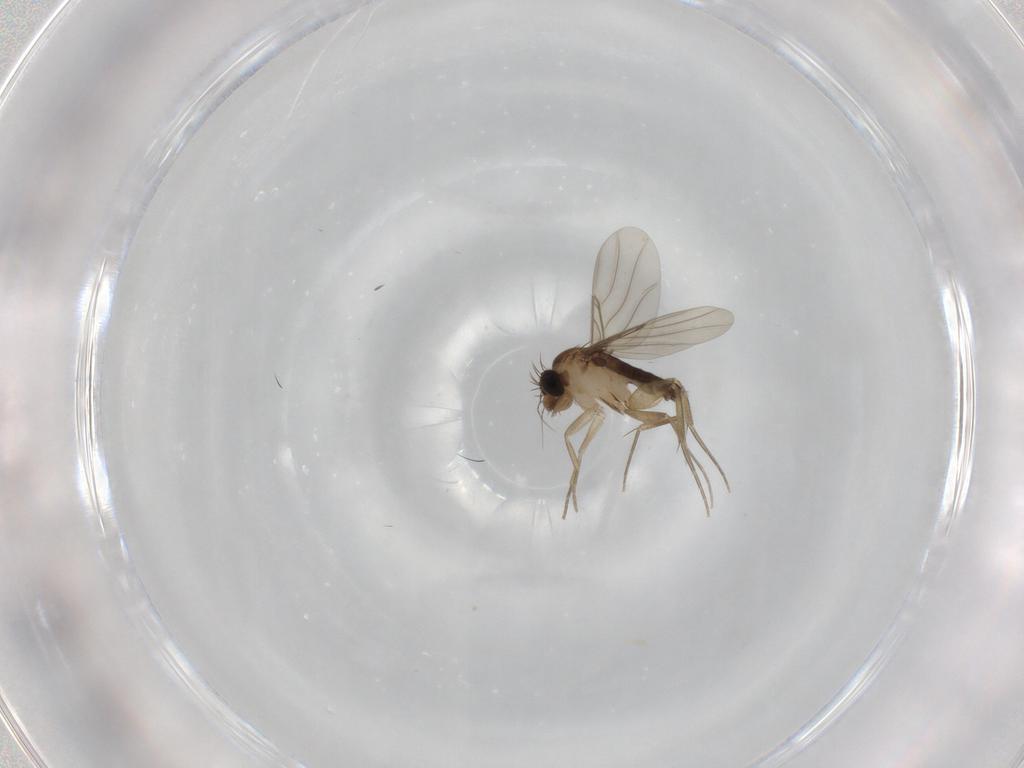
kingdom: Animalia
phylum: Arthropoda
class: Insecta
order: Diptera
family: Phoridae
